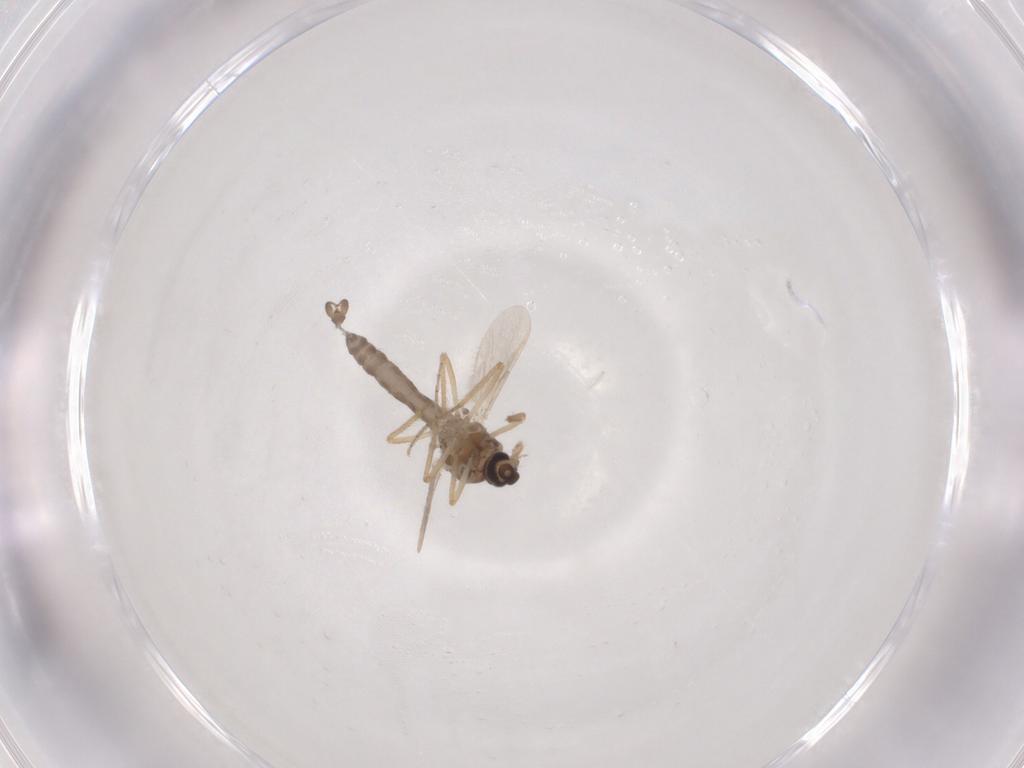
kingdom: Animalia
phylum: Arthropoda
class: Insecta
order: Diptera
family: Ceratopogonidae
